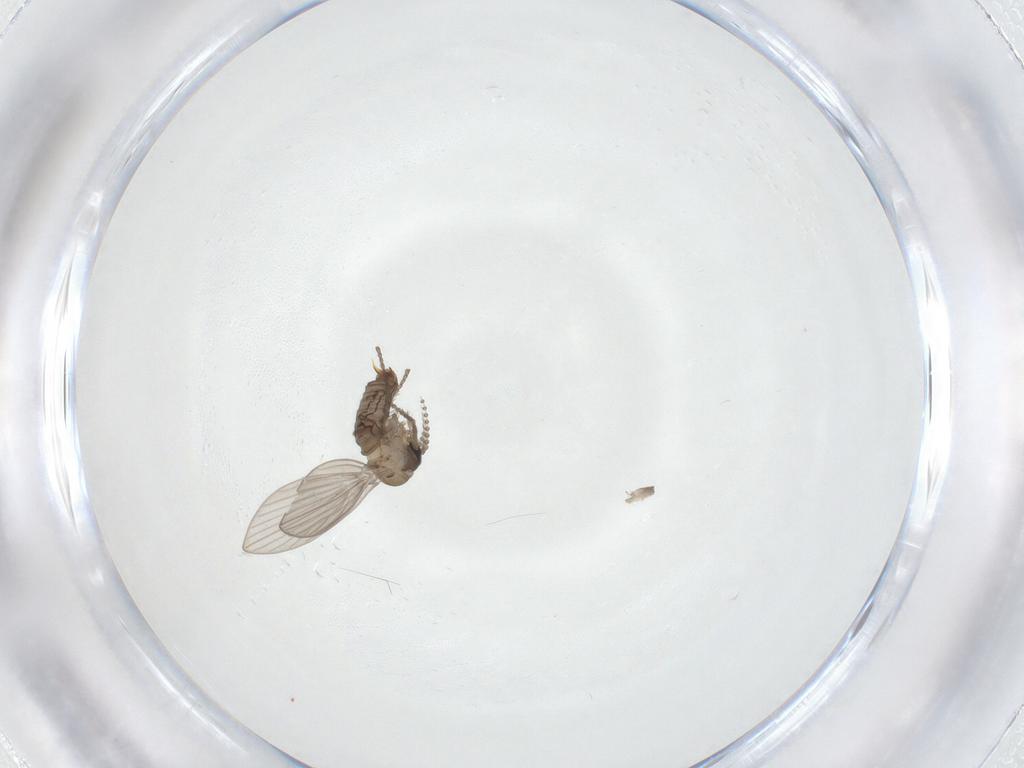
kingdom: Animalia
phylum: Arthropoda
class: Insecta
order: Diptera
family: Psychodidae
